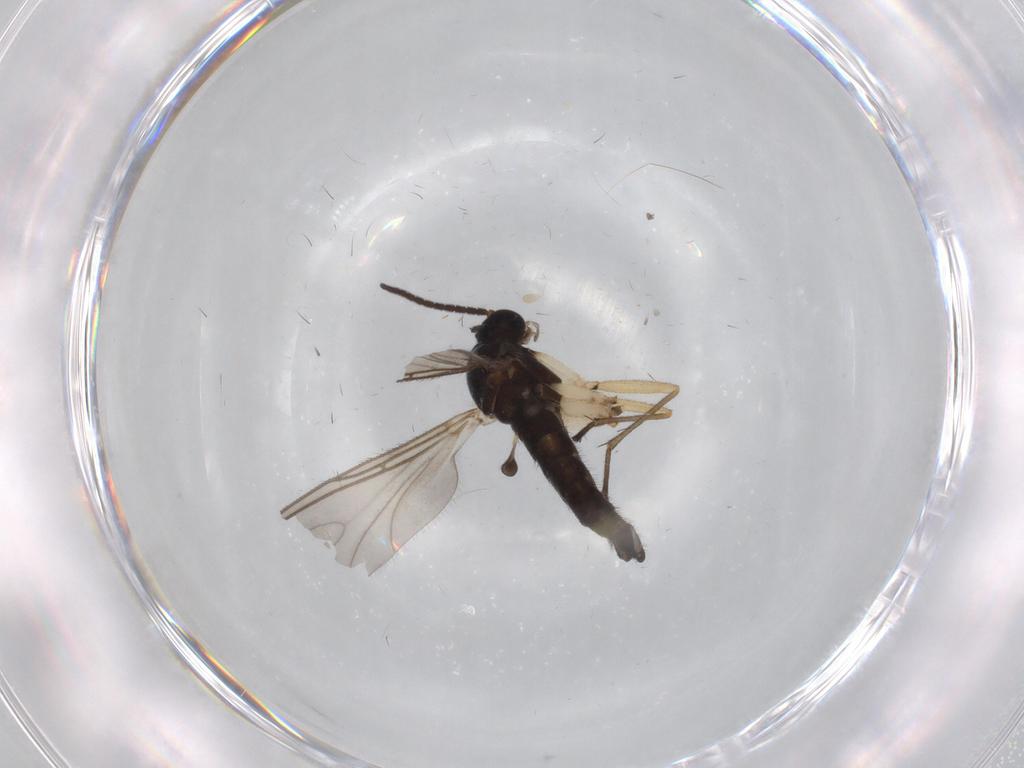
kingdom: Animalia
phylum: Arthropoda
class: Insecta
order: Diptera
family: Sciaridae
